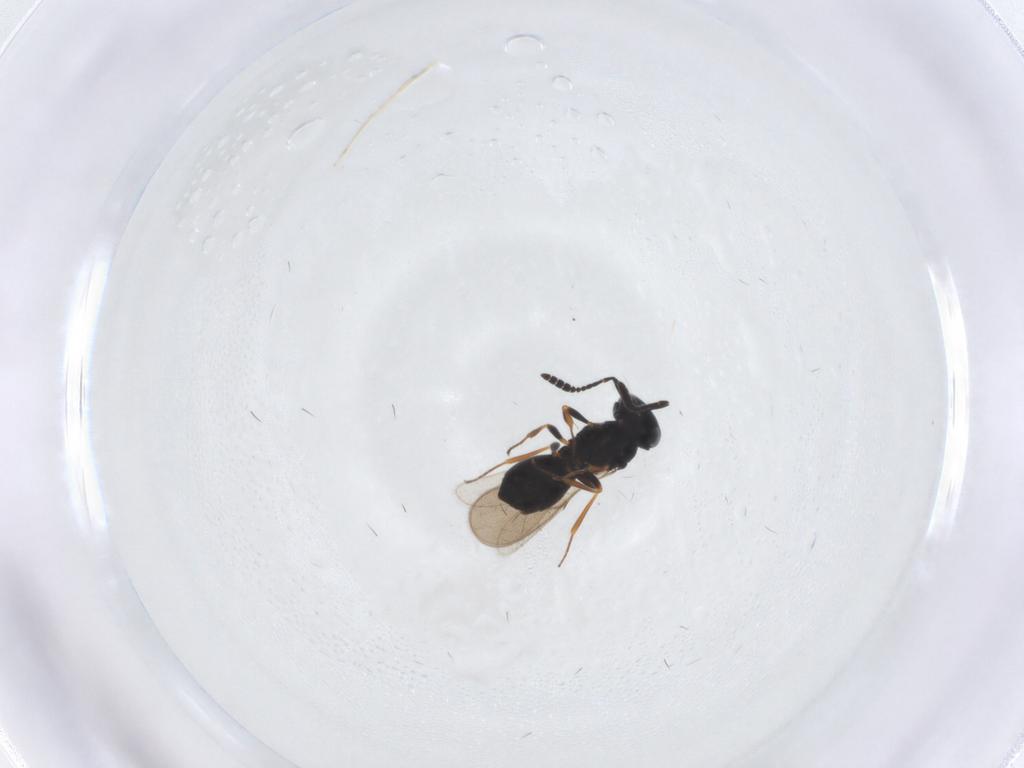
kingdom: Animalia
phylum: Arthropoda
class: Insecta
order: Hymenoptera
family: Scelionidae
